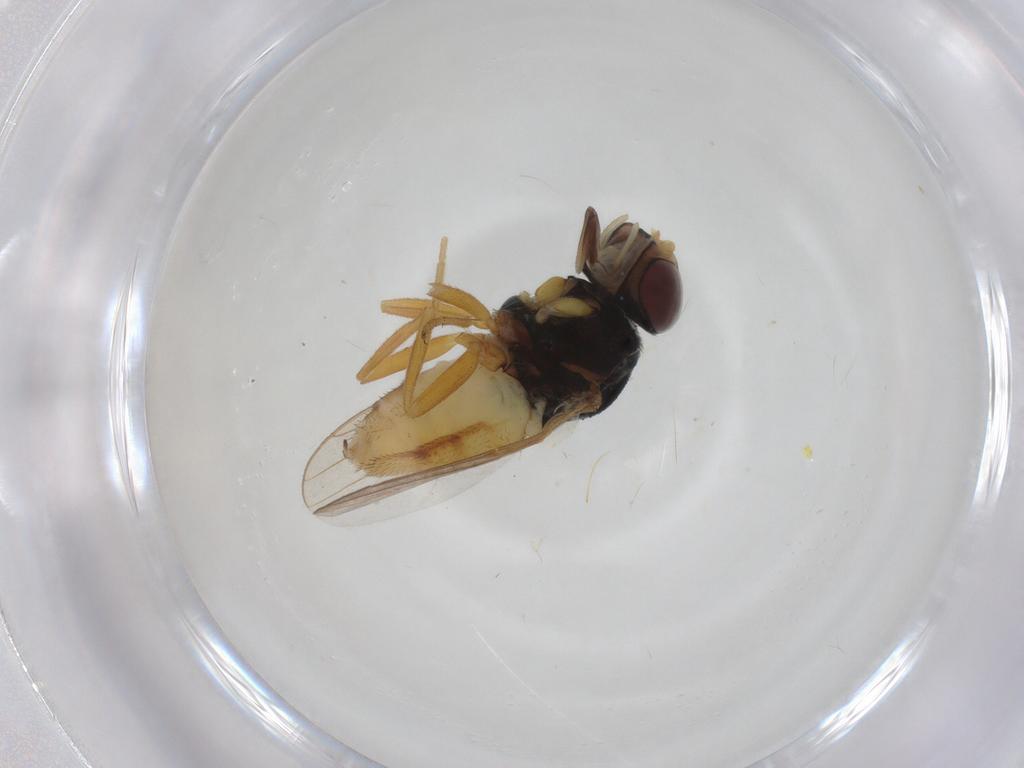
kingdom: Animalia
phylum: Arthropoda
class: Insecta
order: Diptera
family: Chloropidae
